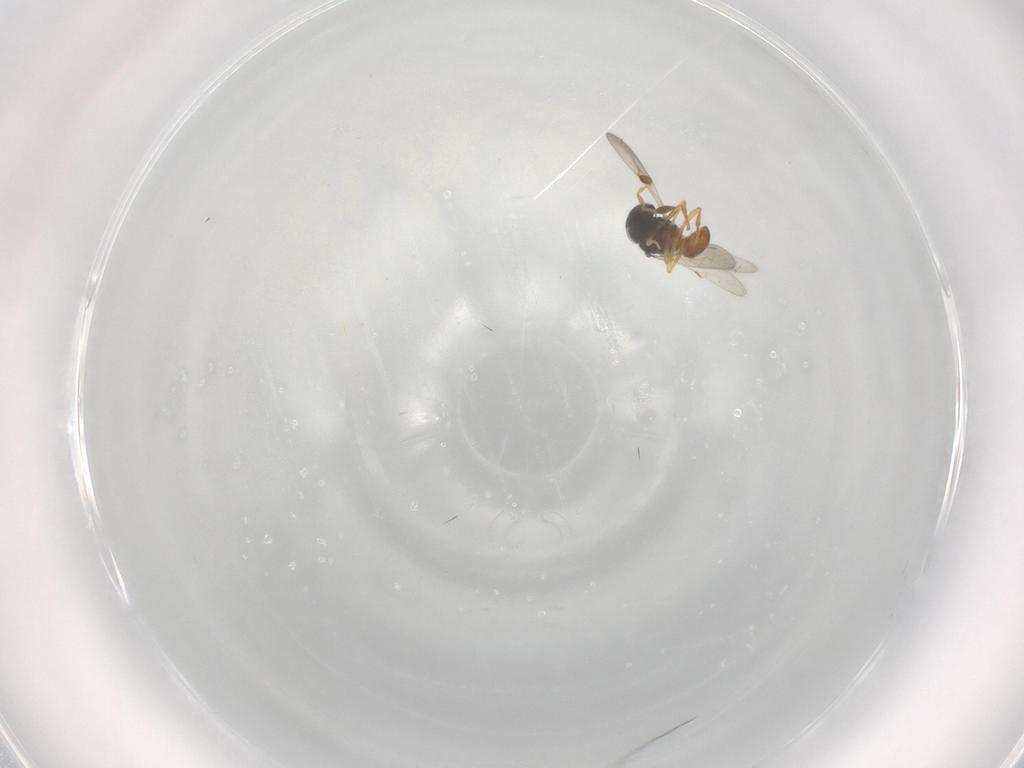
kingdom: Animalia
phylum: Arthropoda
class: Insecta
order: Hymenoptera
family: Scelionidae
